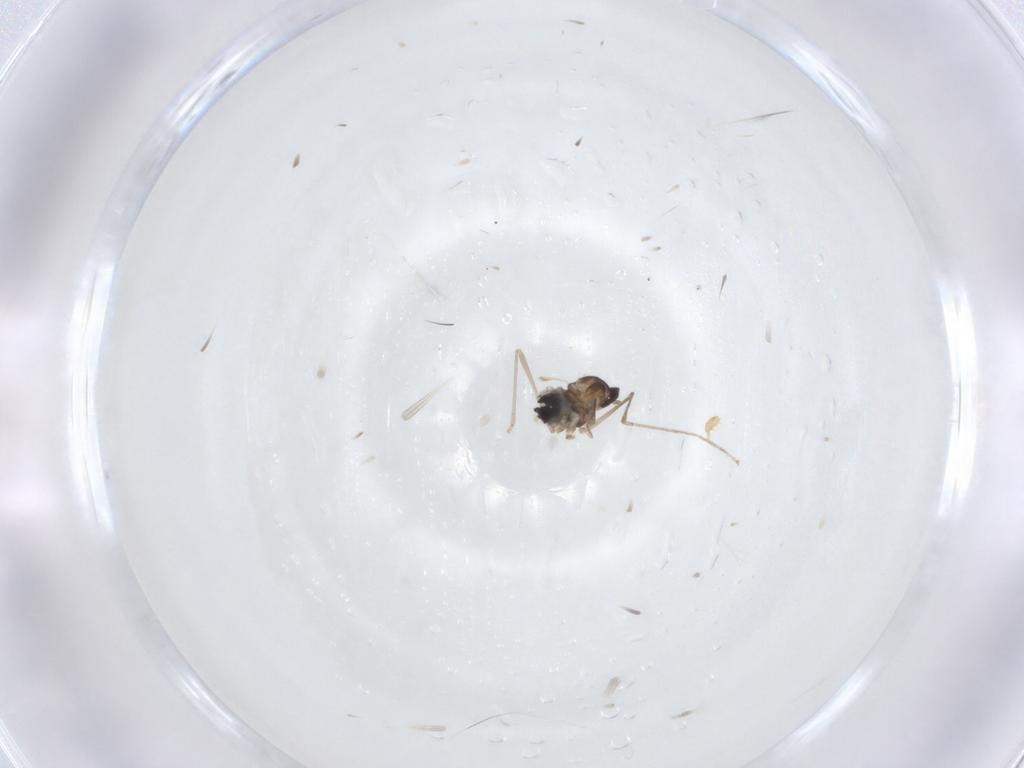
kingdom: Animalia
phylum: Arthropoda
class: Insecta
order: Diptera
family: Cecidomyiidae
